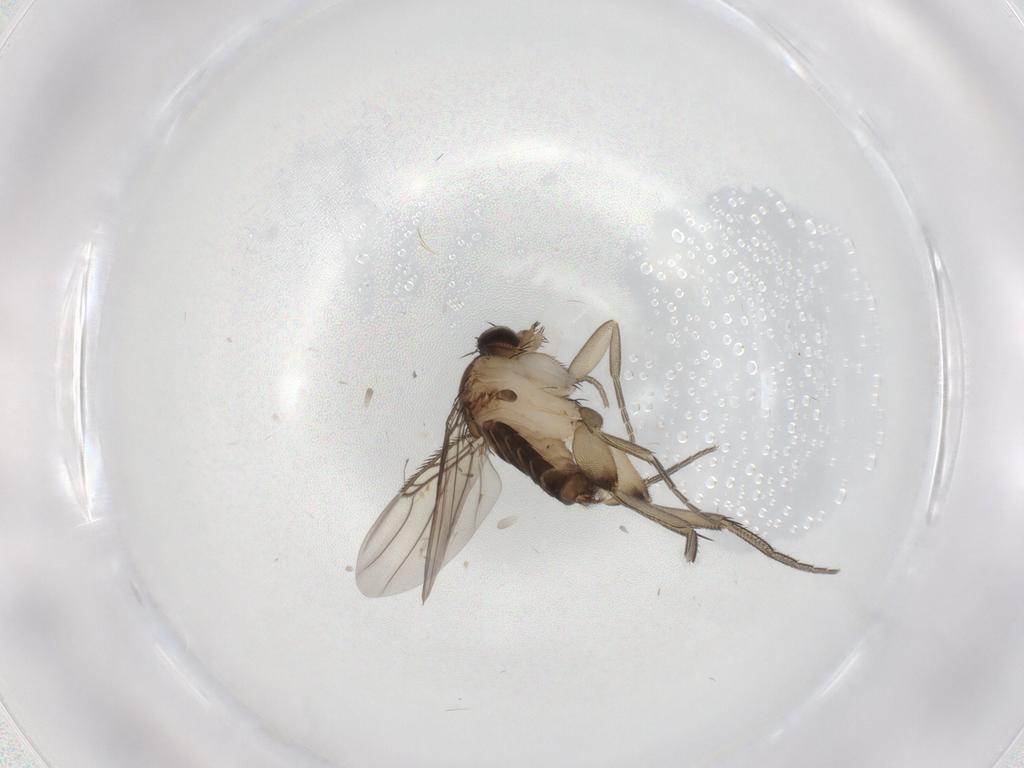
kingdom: Animalia
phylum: Arthropoda
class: Insecta
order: Diptera
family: Phoridae
